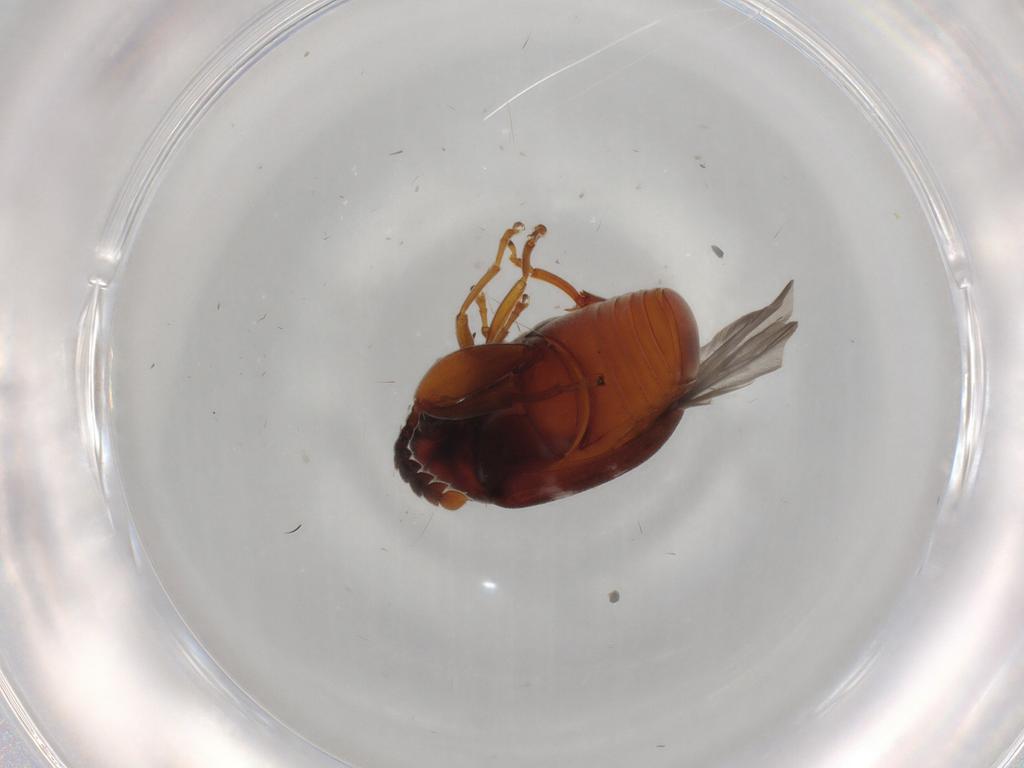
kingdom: Animalia
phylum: Arthropoda
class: Insecta
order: Coleoptera
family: Chrysomelidae
